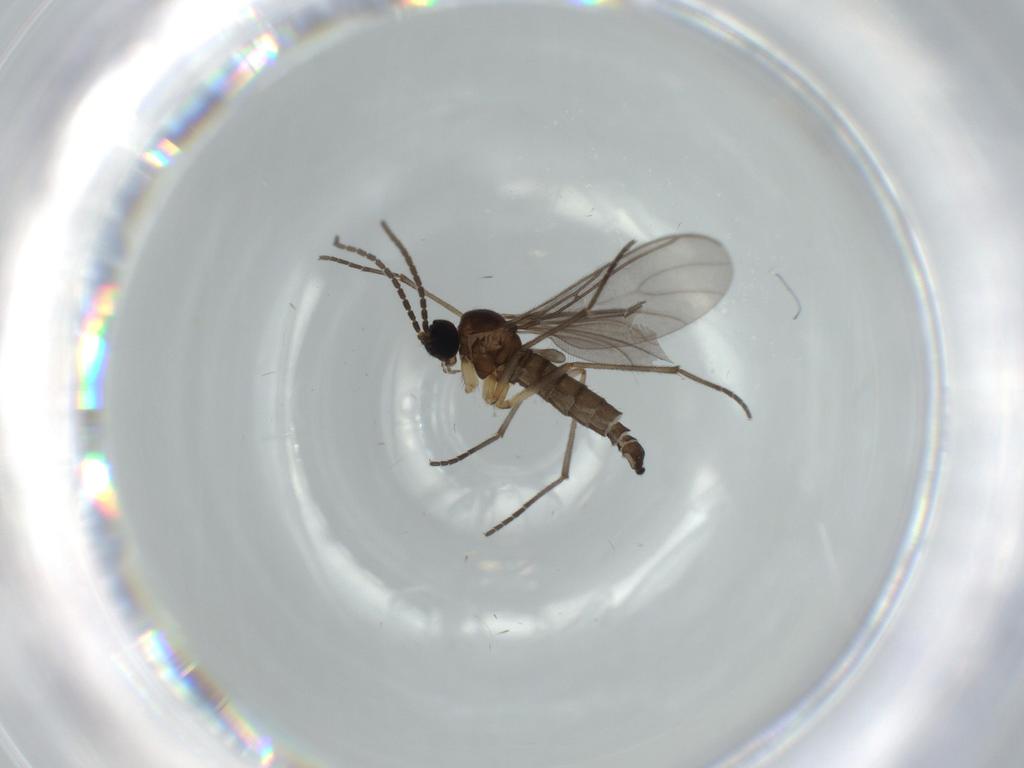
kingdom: Animalia
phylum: Arthropoda
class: Insecta
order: Diptera
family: Sciaridae
